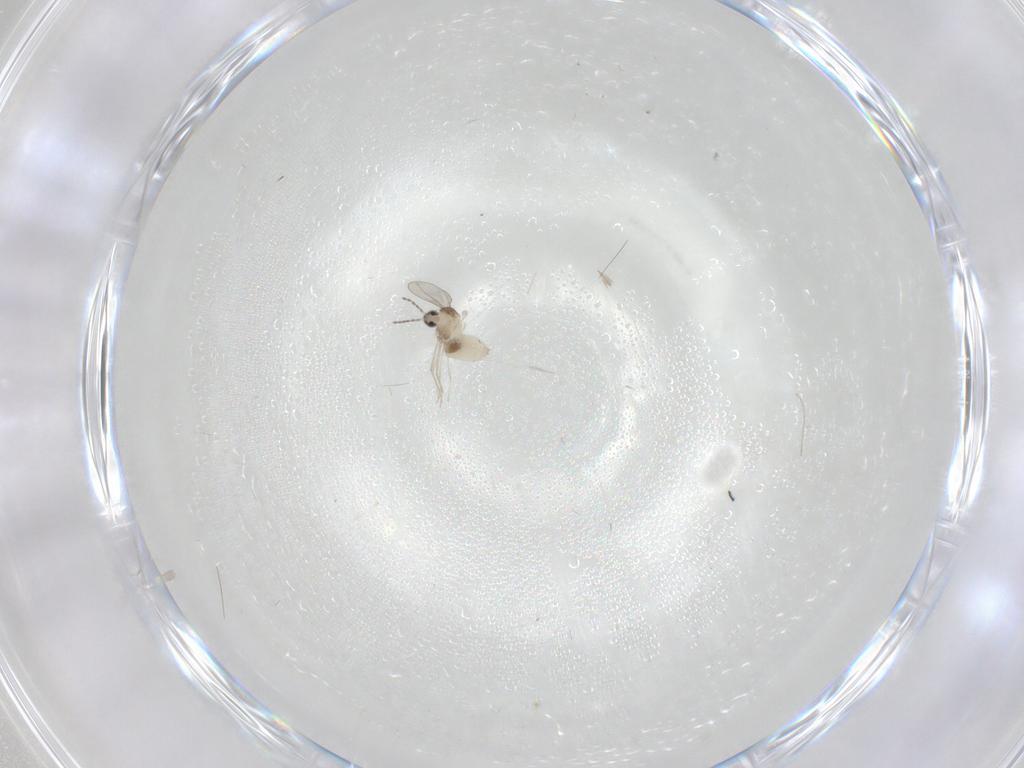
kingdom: Animalia
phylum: Arthropoda
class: Insecta
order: Diptera
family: Cecidomyiidae
